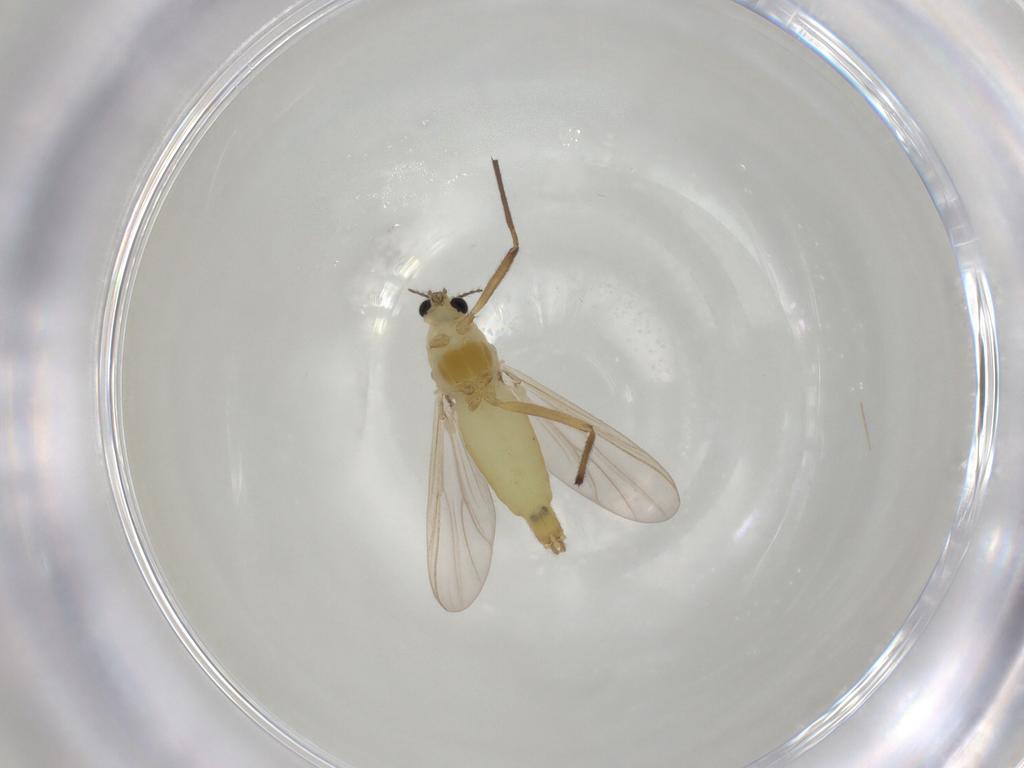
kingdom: Animalia
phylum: Arthropoda
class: Insecta
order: Diptera
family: Chironomidae
